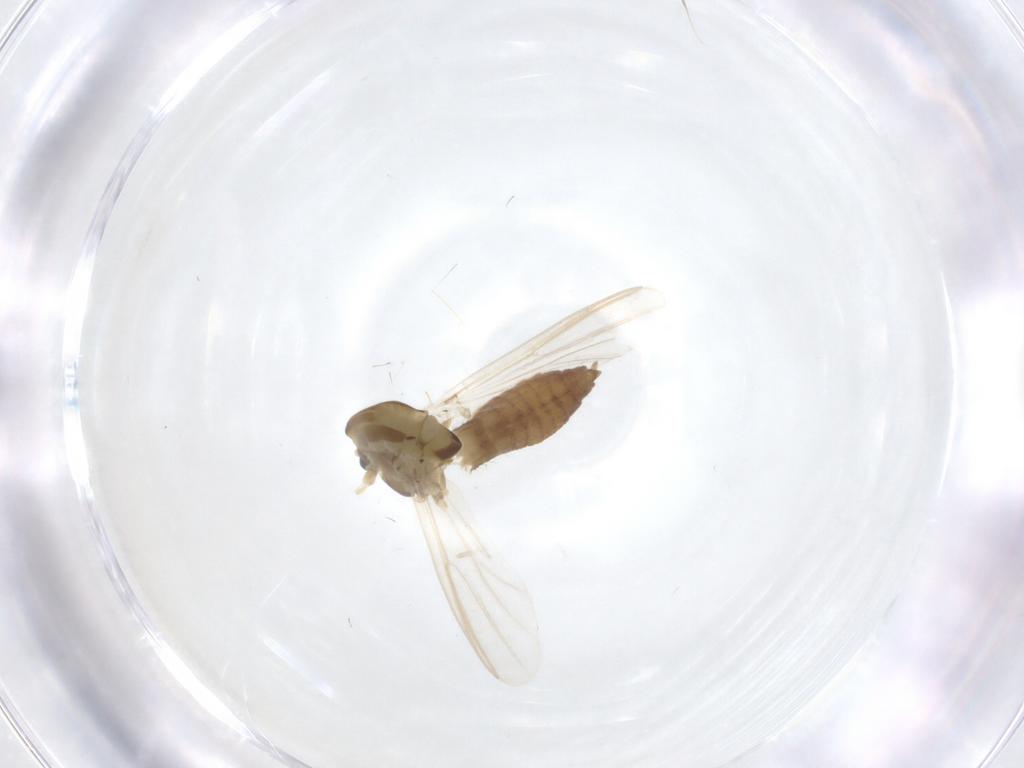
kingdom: Animalia
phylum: Arthropoda
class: Insecta
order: Diptera
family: Chironomidae
